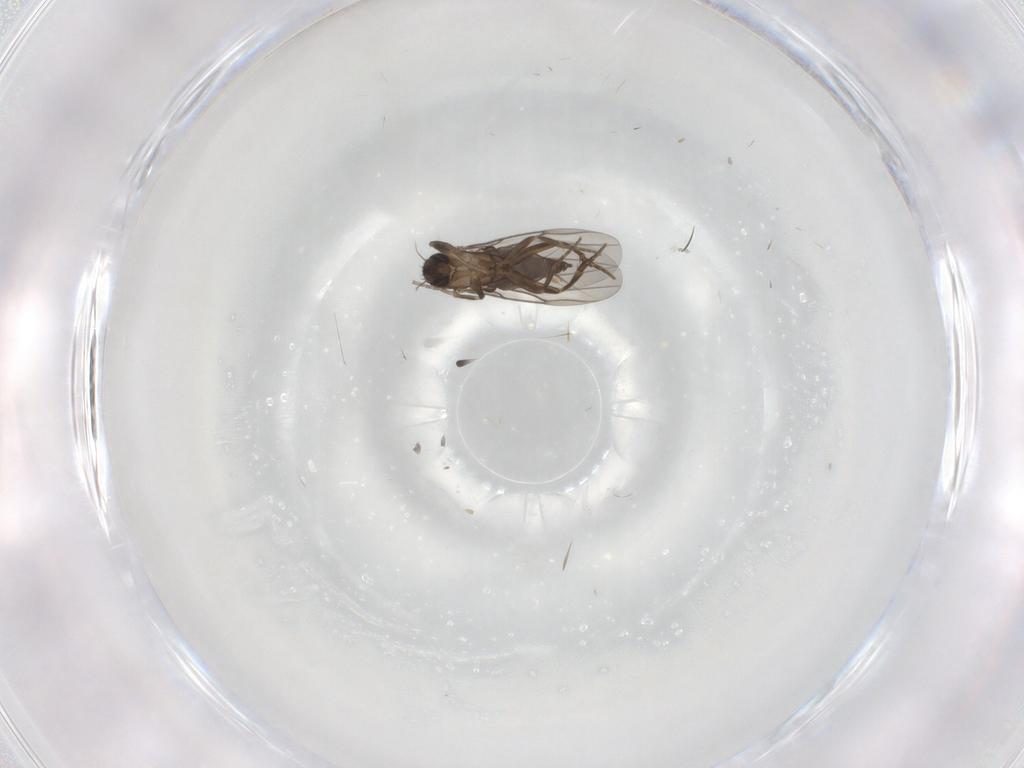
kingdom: Animalia
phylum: Arthropoda
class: Insecta
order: Diptera
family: Cecidomyiidae
